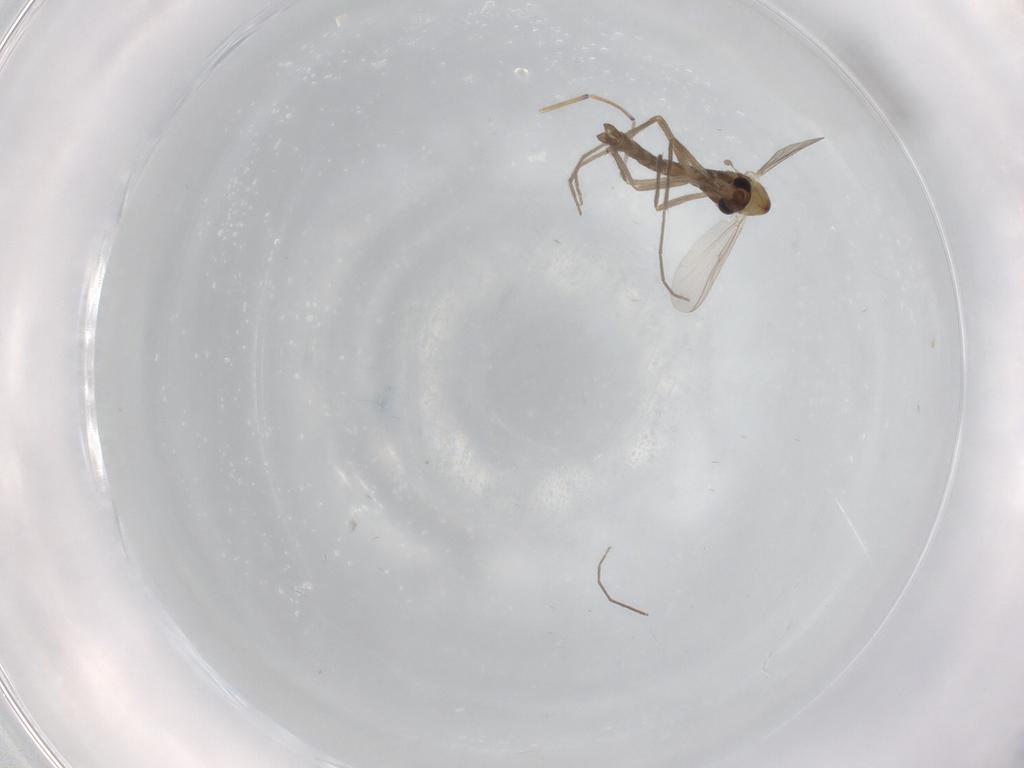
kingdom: Animalia
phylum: Arthropoda
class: Insecta
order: Diptera
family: Chironomidae
